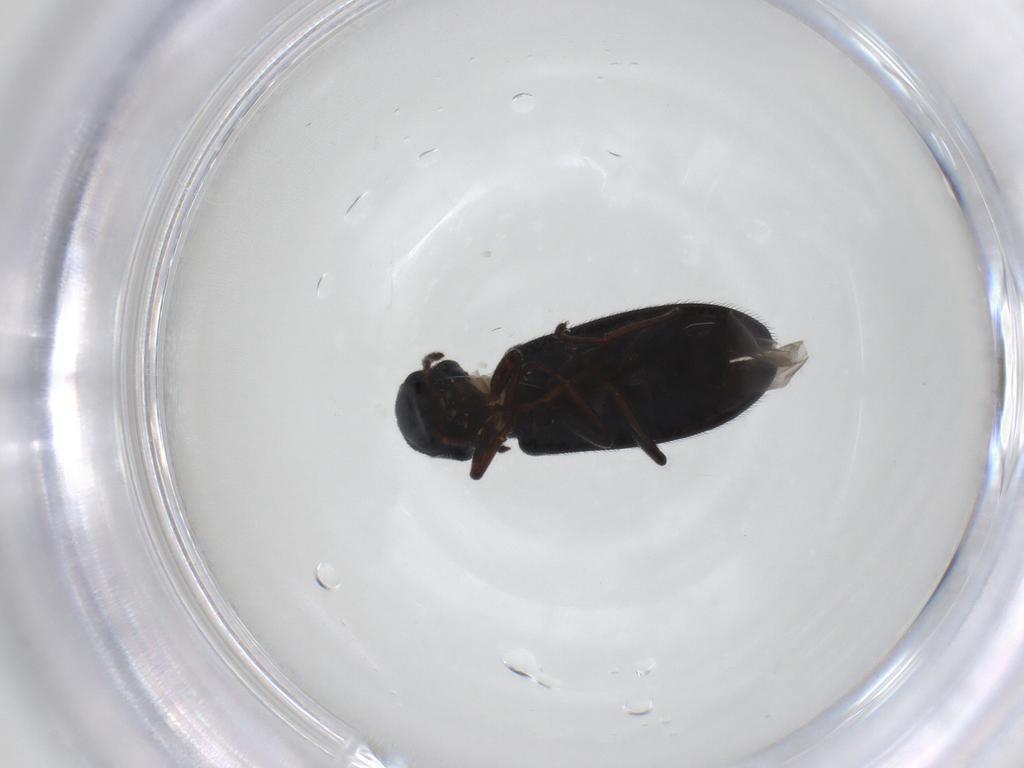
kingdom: Animalia
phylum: Arthropoda
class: Insecta
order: Coleoptera
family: Melyridae
